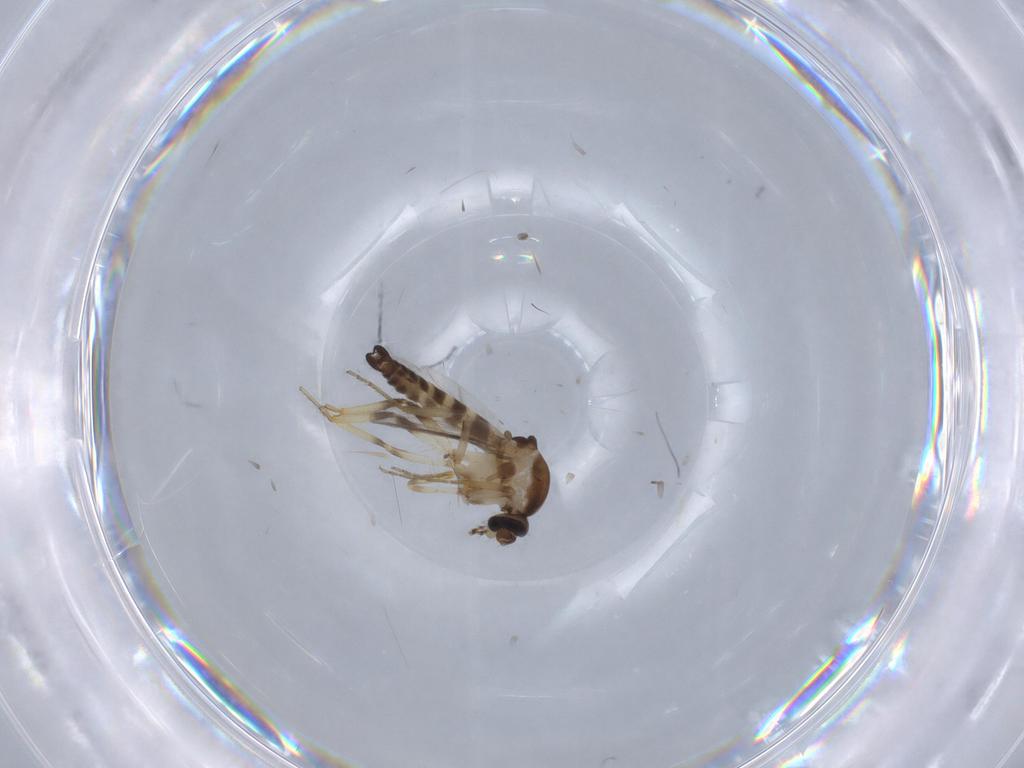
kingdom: Animalia
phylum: Arthropoda
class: Insecta
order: Diptera
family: Ceratopogonidae
